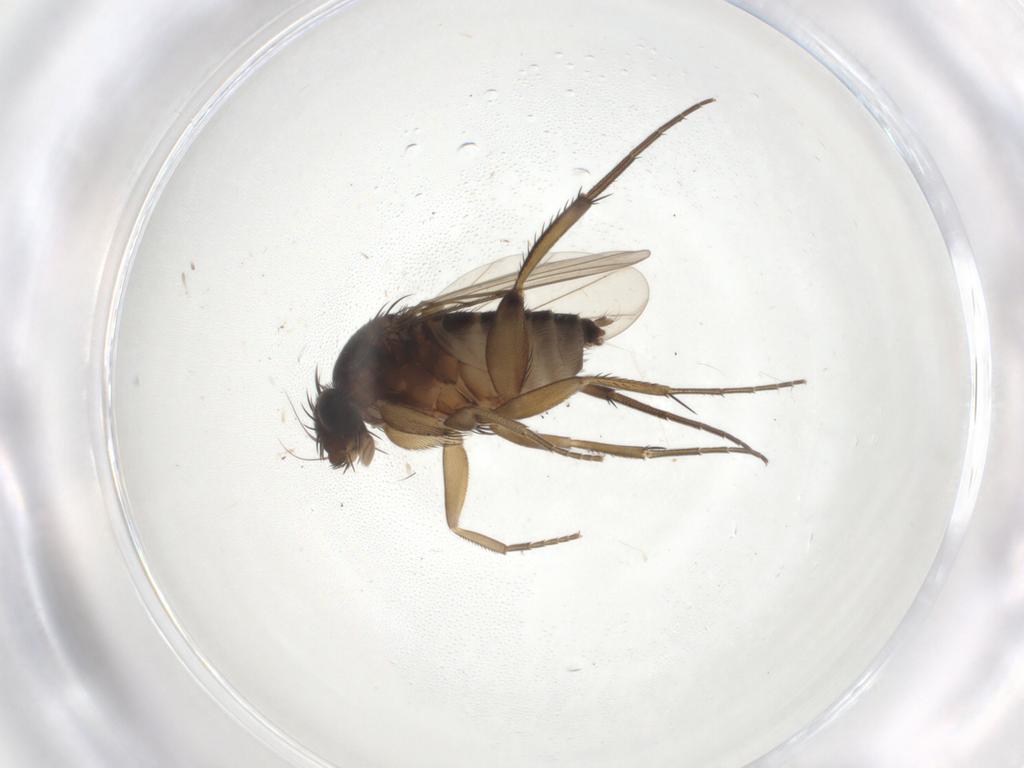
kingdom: Animalia
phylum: Arthropoda
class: Insecta
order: Diptera
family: Phoridae
